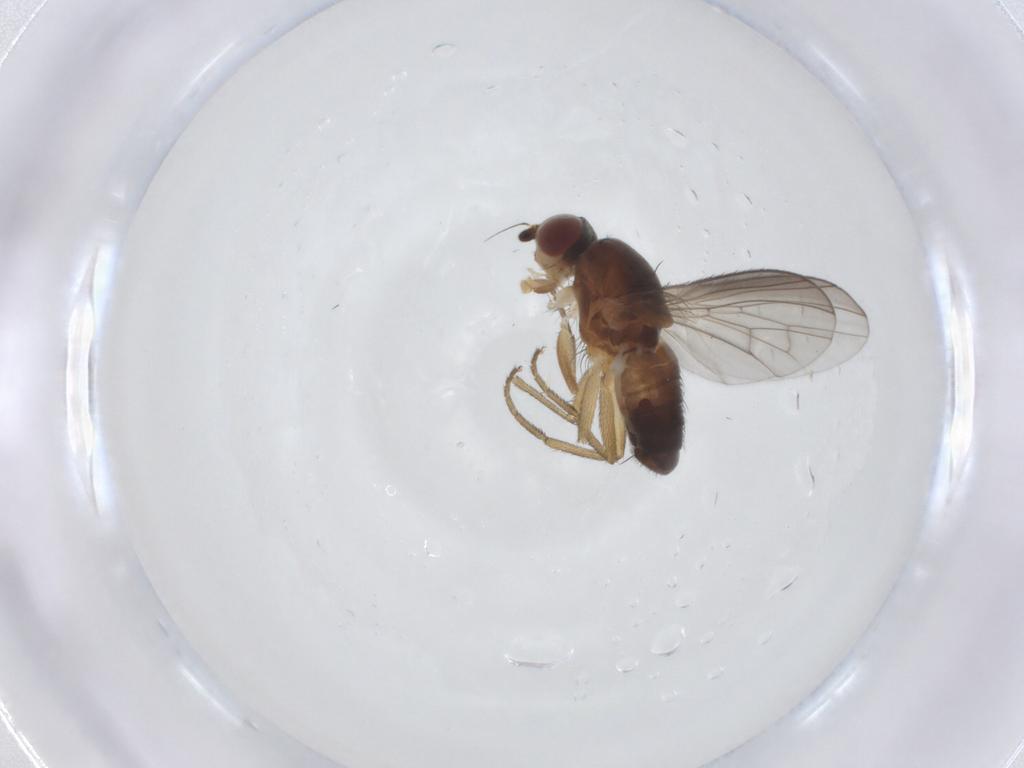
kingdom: Animalia
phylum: Arthropoda
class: Insecta
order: Diptera
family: Heleomyzidae
